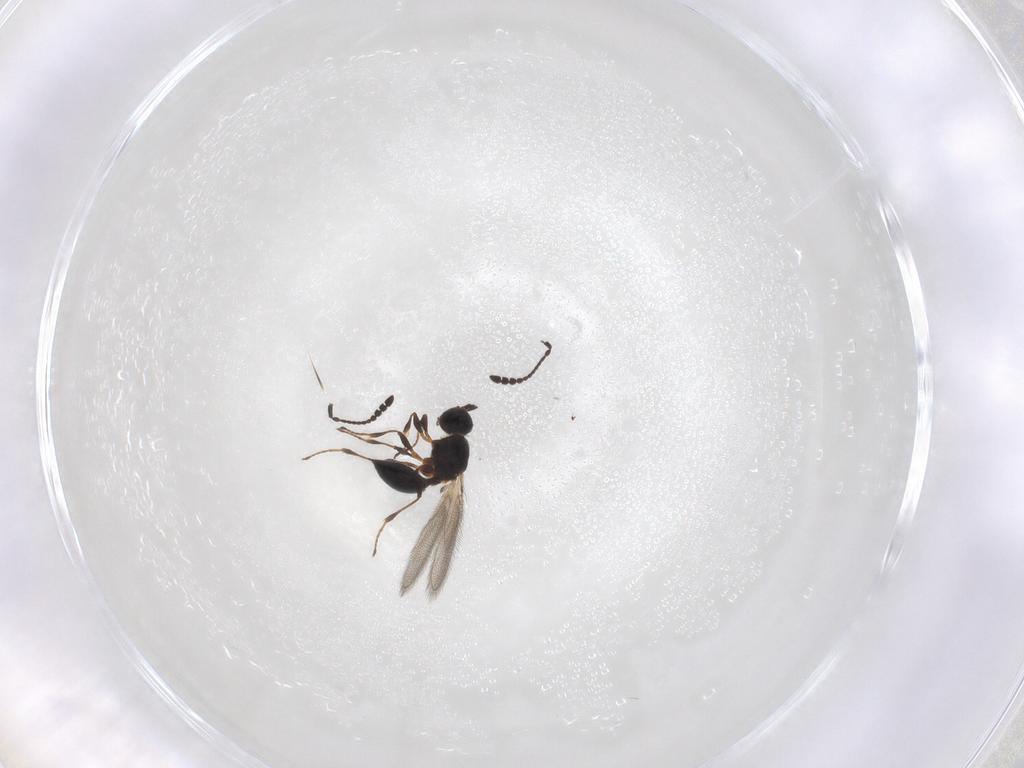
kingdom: Animalia
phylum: Arthropoda
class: Insecta
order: Hymenoptera
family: Diapriidae
